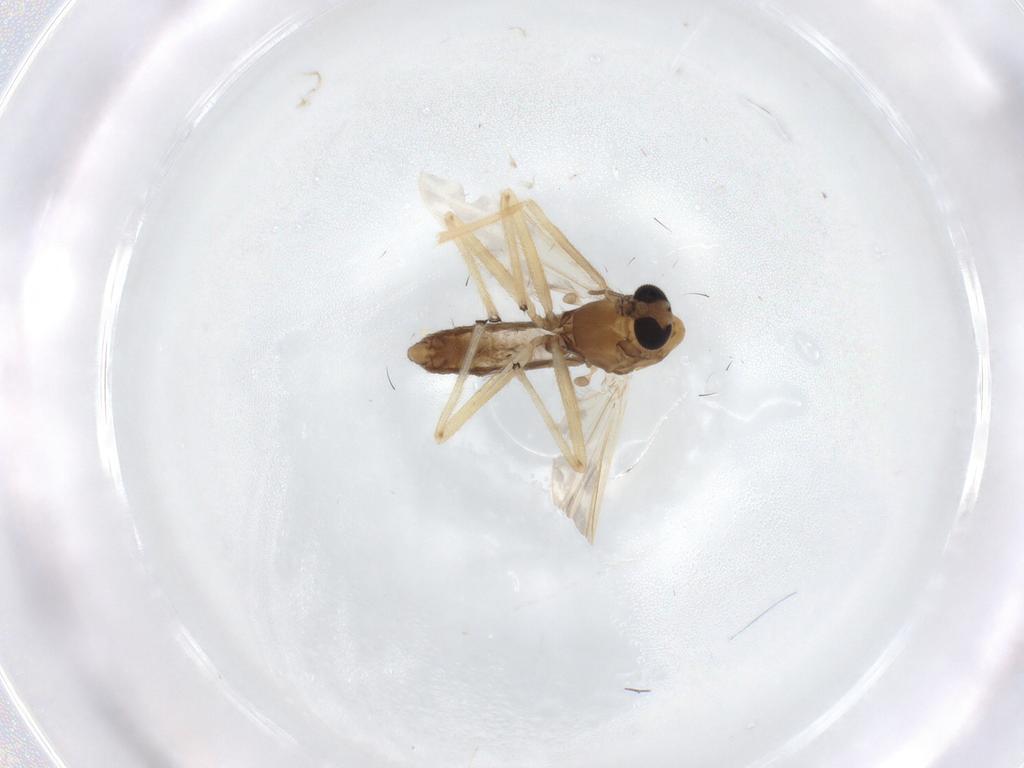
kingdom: Animalia
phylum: Arthropoda
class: Insecta
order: Diptera
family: Chironomidae
